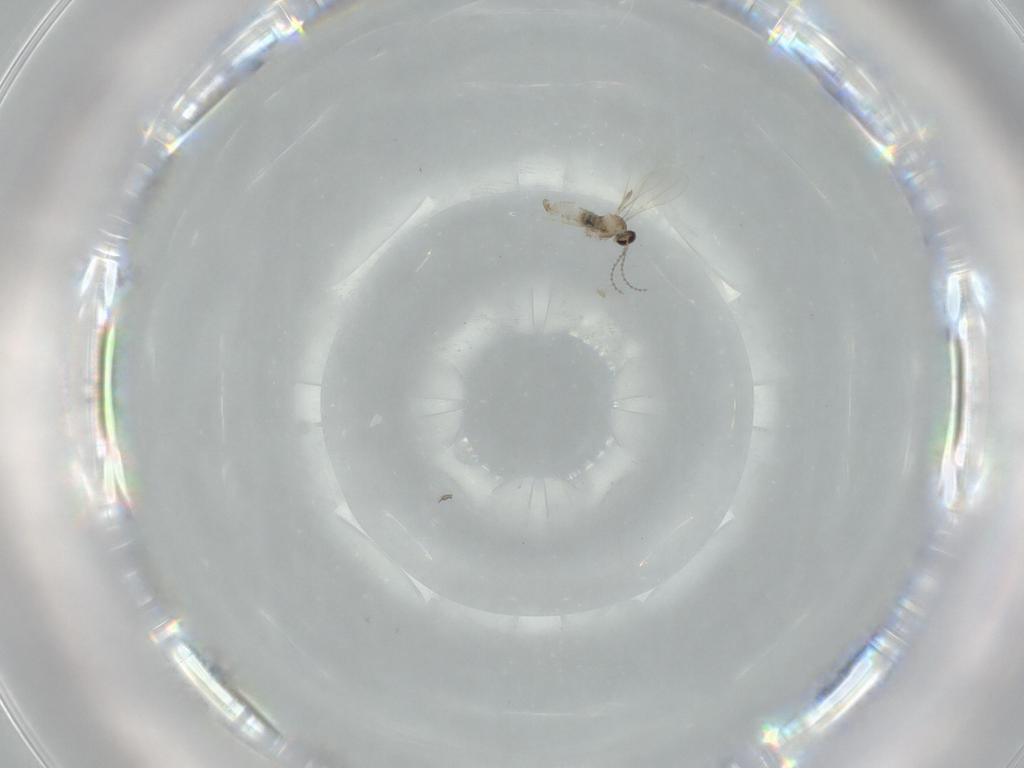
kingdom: Animalia
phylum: Arthropoda
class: Insecta
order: Diptera
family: Cecidomyiidae
